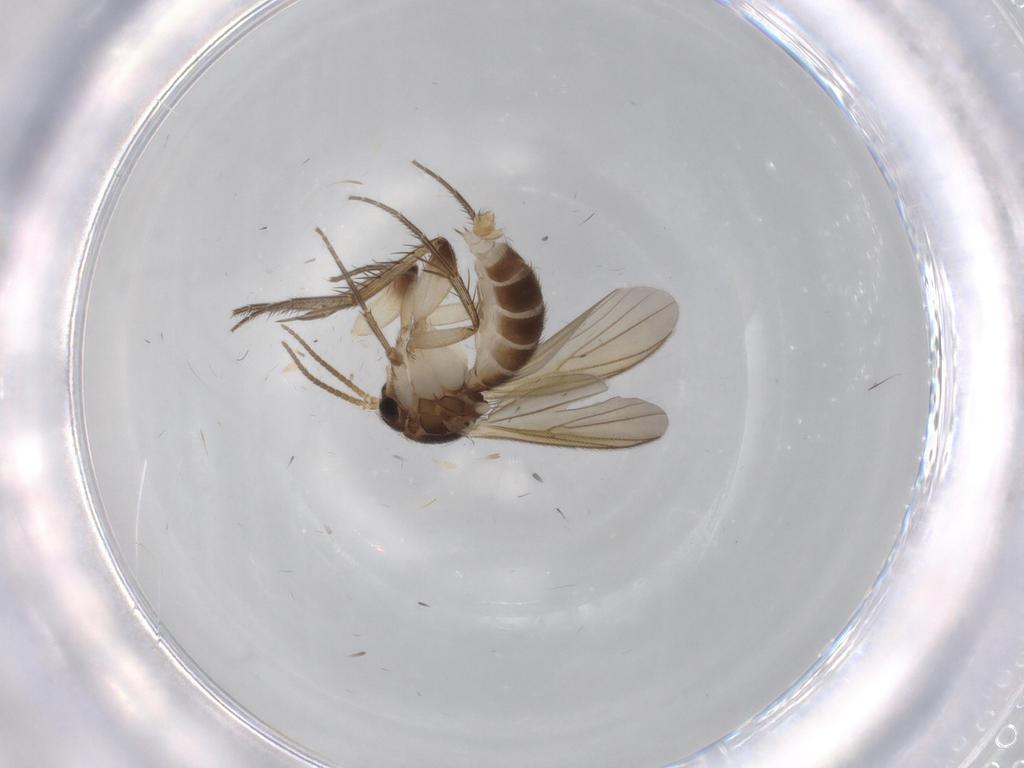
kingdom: Animalia
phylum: Arthropoda
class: Insecta
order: Diptera
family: Mycetophilidae
